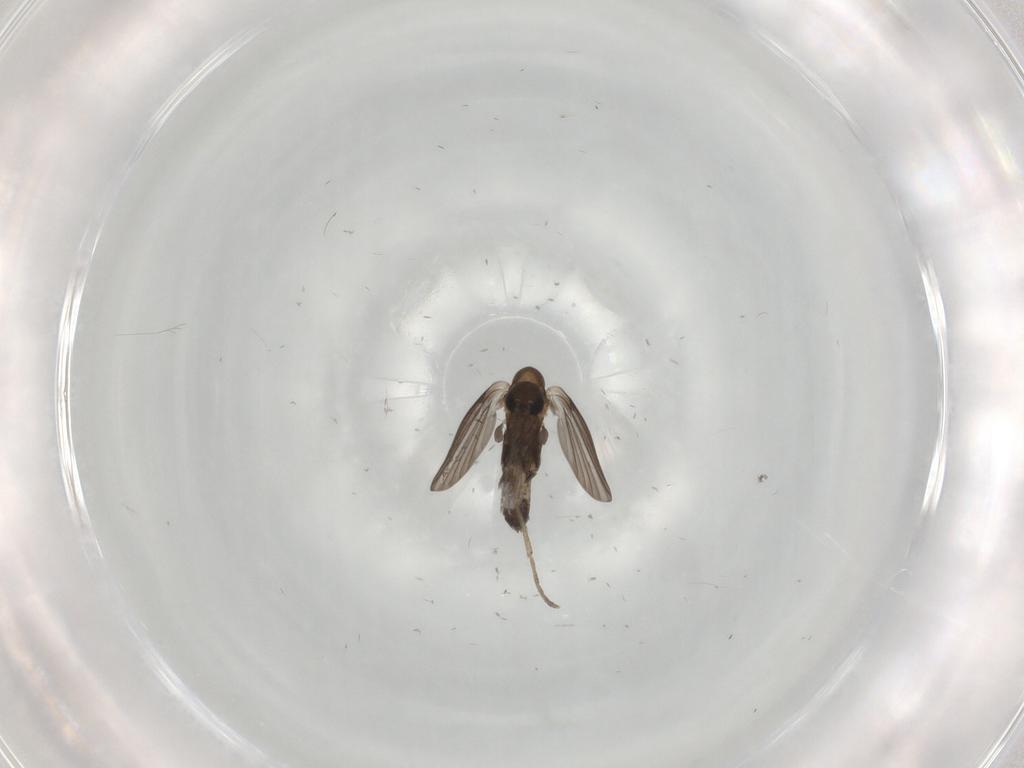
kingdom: Animalia
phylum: Arthropoda
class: Insecta
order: Diptera
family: Psychodidae
